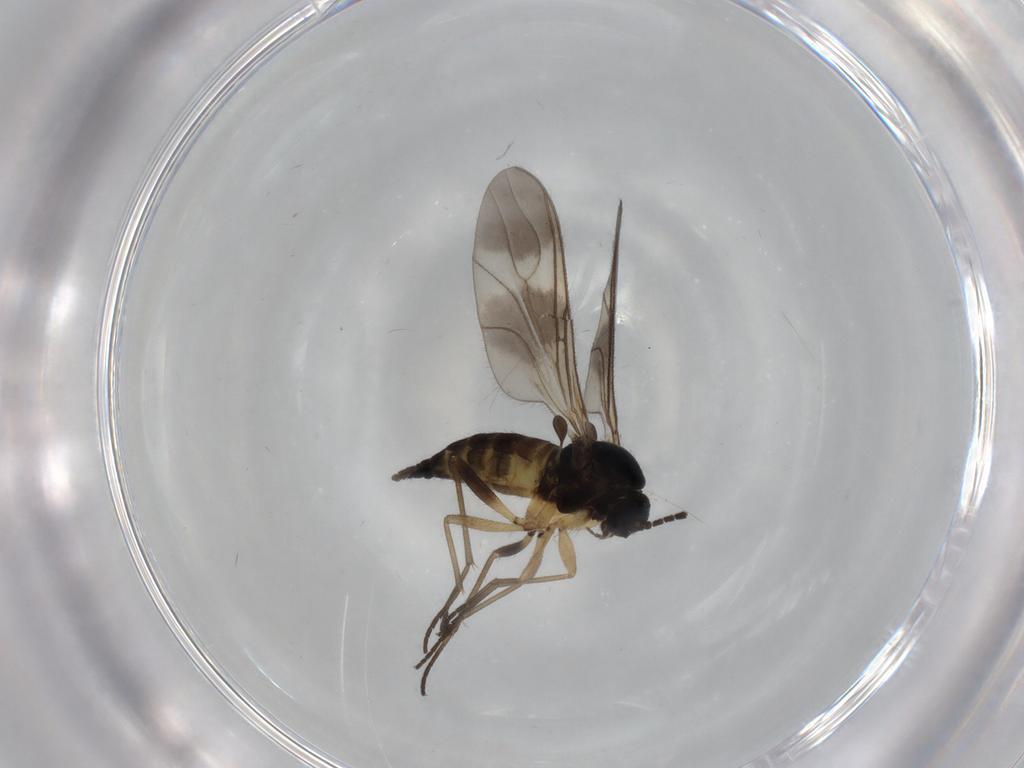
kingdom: Animalia
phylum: Arthropoda
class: Insecta
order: Diptera
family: Sciaridae
